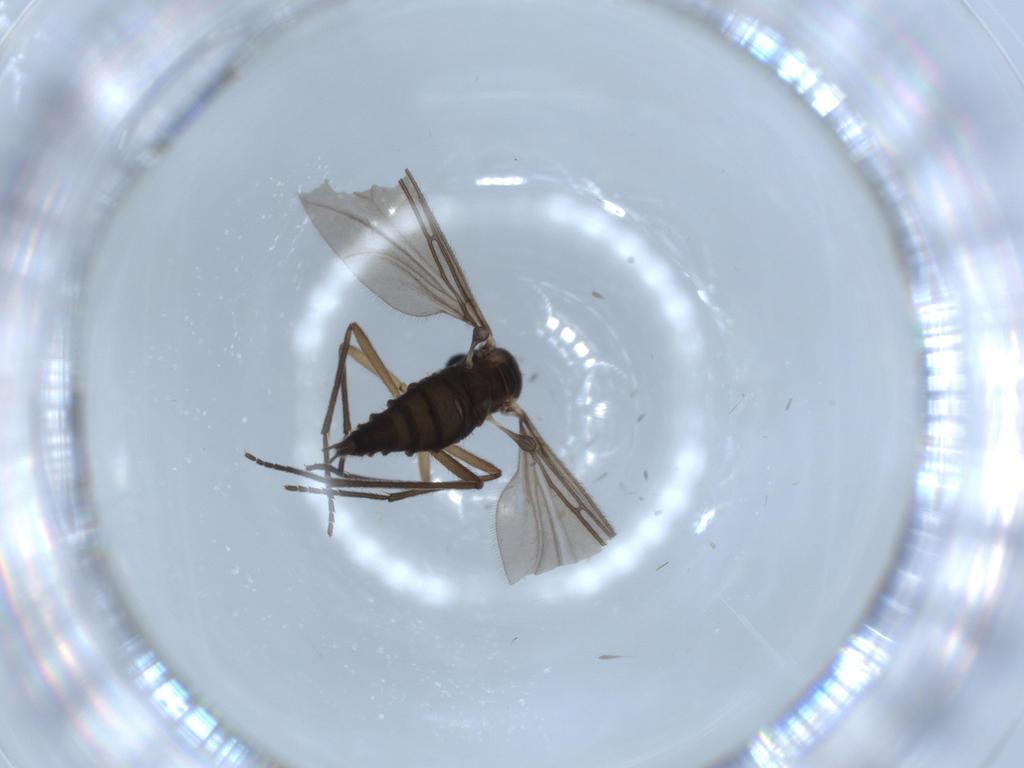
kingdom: Animalia
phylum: Arthropoda
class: Insecta
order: Diptera
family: Sciaridae
